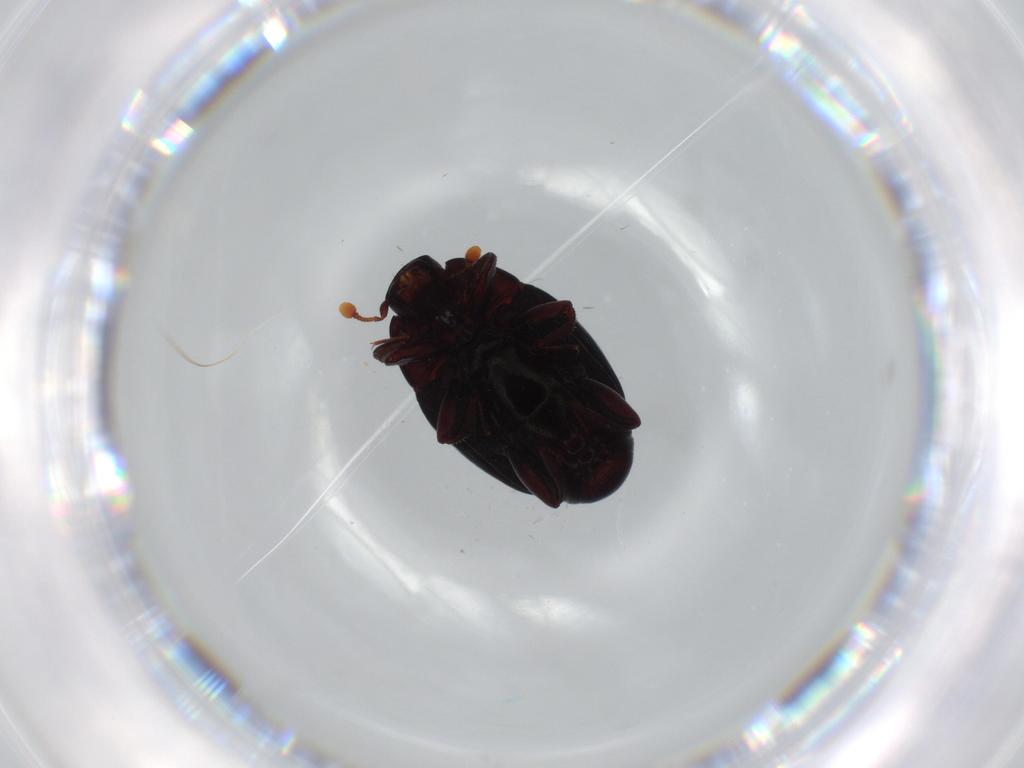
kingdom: Animalia
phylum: Arthropoda
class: Insecta
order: Coleoptera
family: Histeridae
